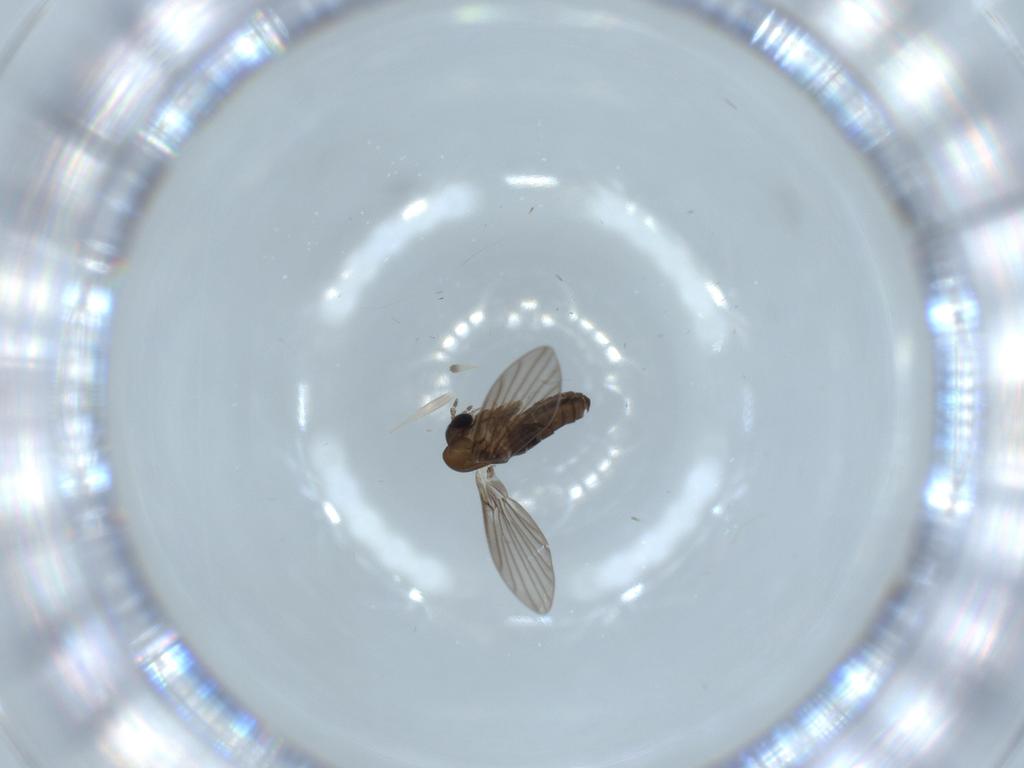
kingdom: Animalia
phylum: Arthropoda
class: Insecta
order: Diptera
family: Psychodidae
